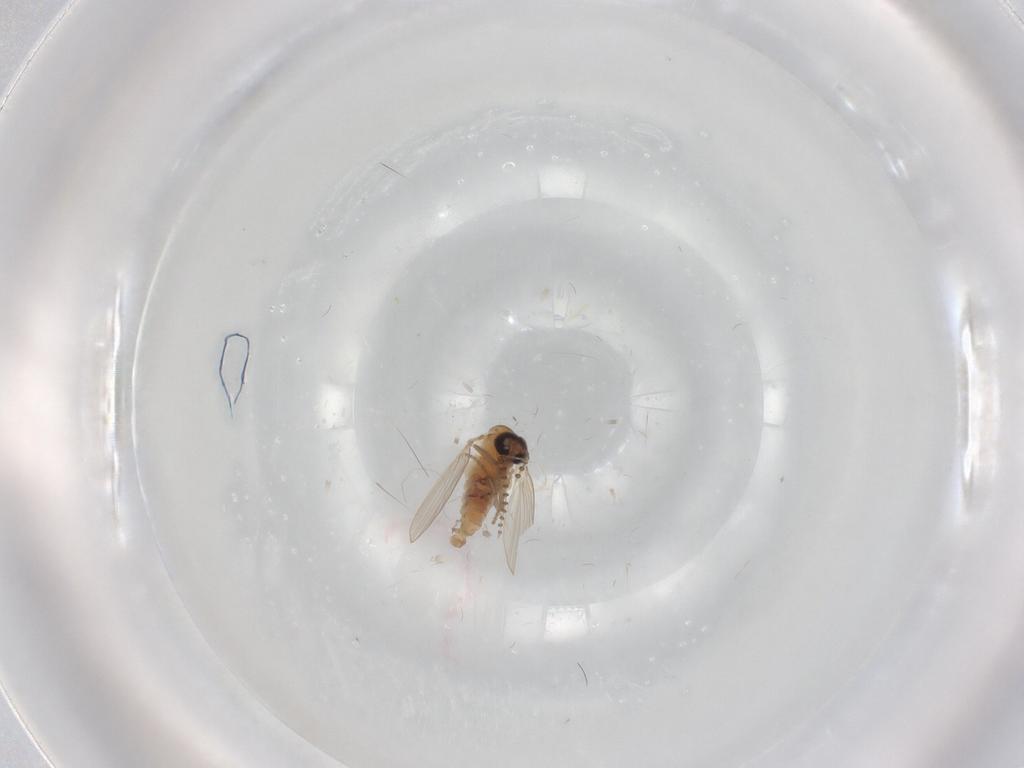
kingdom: Animalia
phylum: Arthropoda
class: Insecta
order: Diptera
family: Psychodidae
